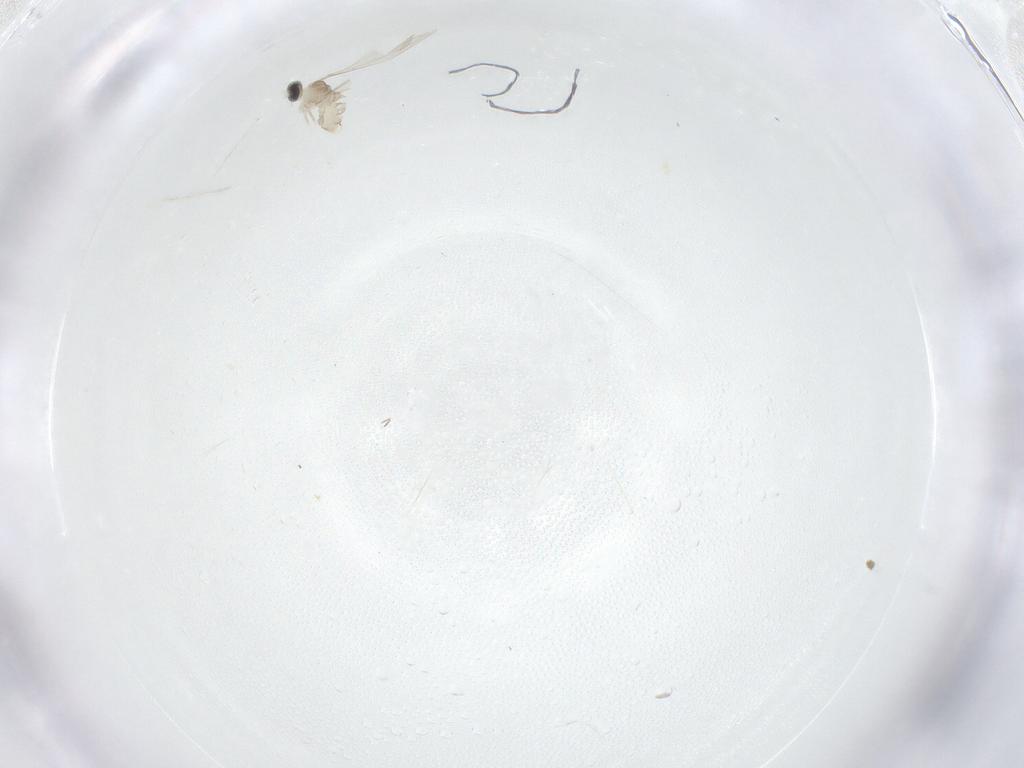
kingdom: Animalia
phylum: Arthropoda
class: Insecta
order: Diptera
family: Cecidomyiidae
